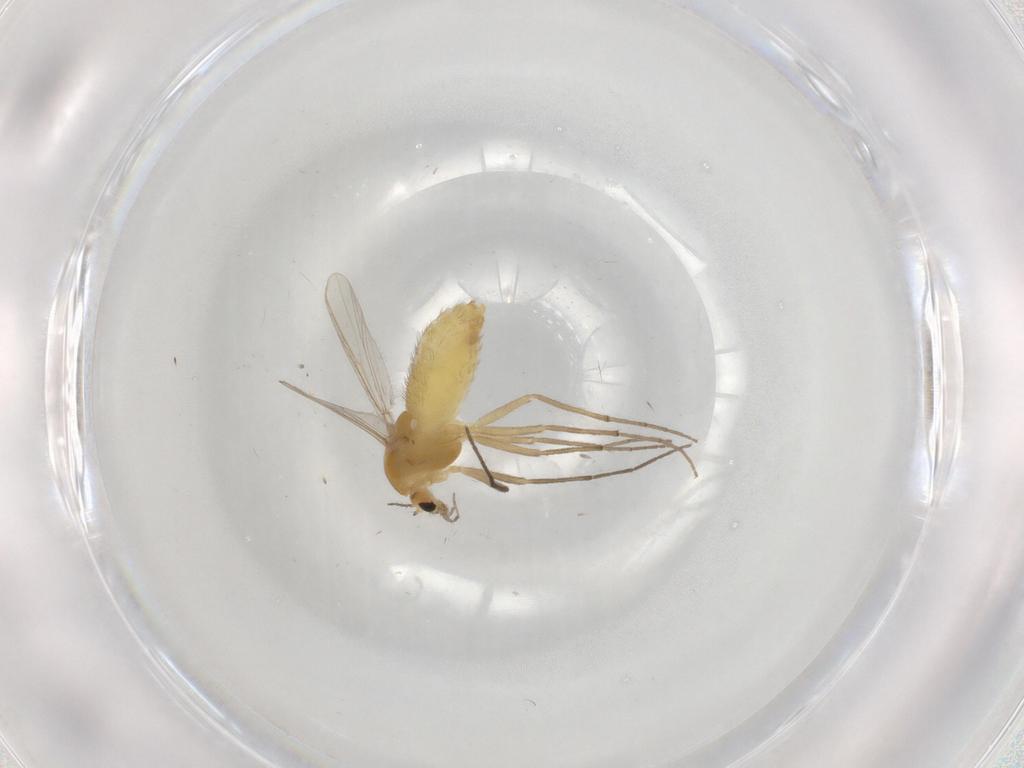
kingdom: Animalia
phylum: Arthropoda
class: Insecta
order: Diptera
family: Chironomidae
